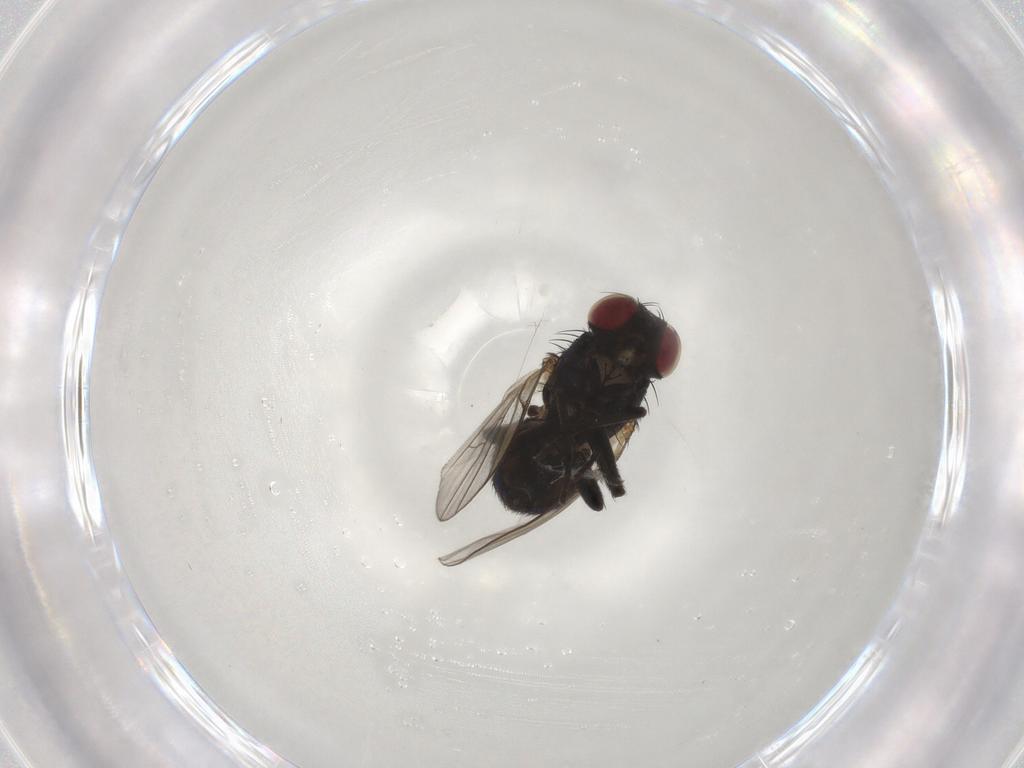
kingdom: Animalia
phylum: Arthropoda
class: Insecta
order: Diptera
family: Agromyzidae
